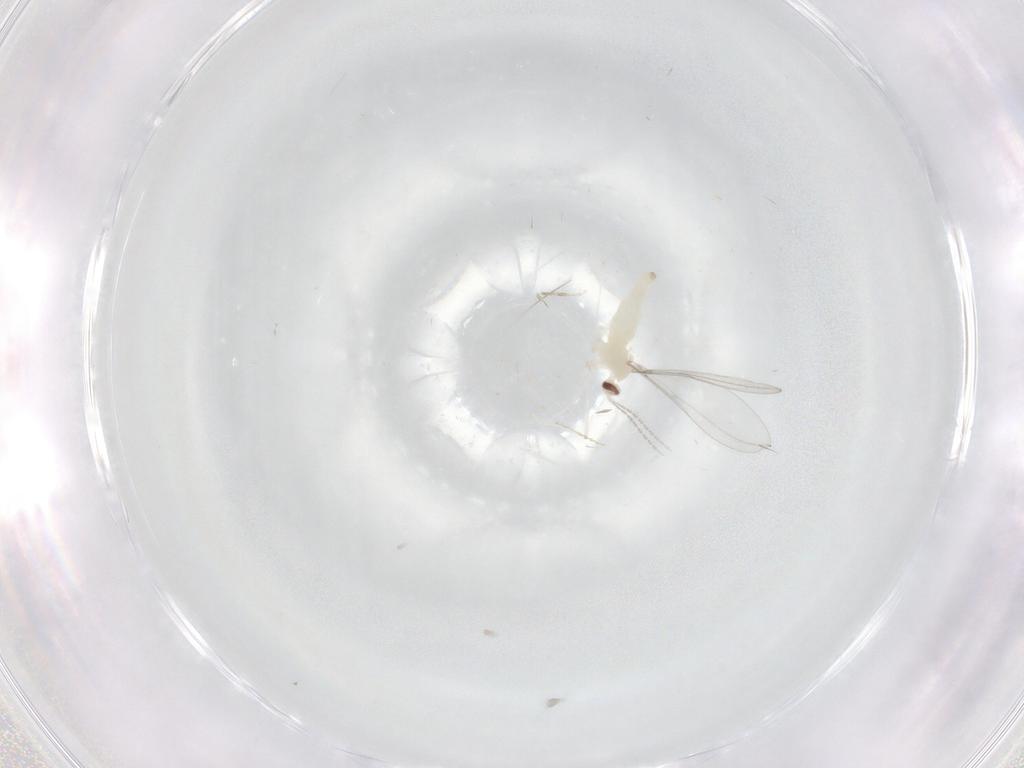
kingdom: Animalia
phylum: Arthropoda
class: Insecta
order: Diptera
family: Ceratopogonidae
